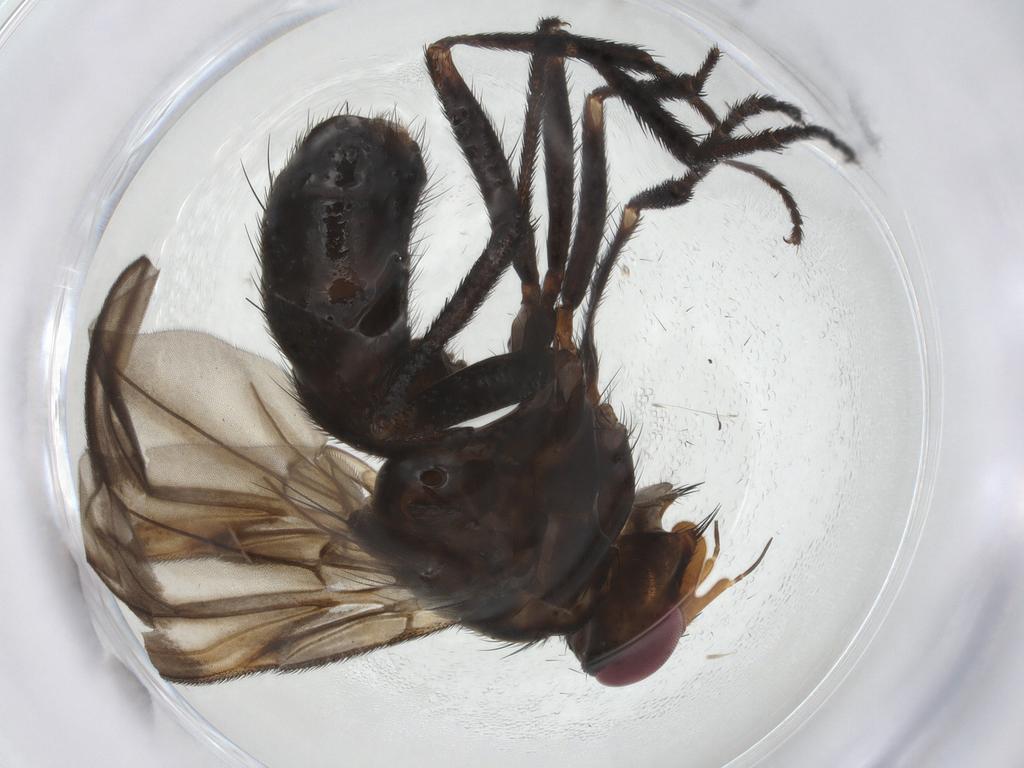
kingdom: Animalia
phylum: Arthropoda
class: Insecta
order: Diptera
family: Calliphoridae
